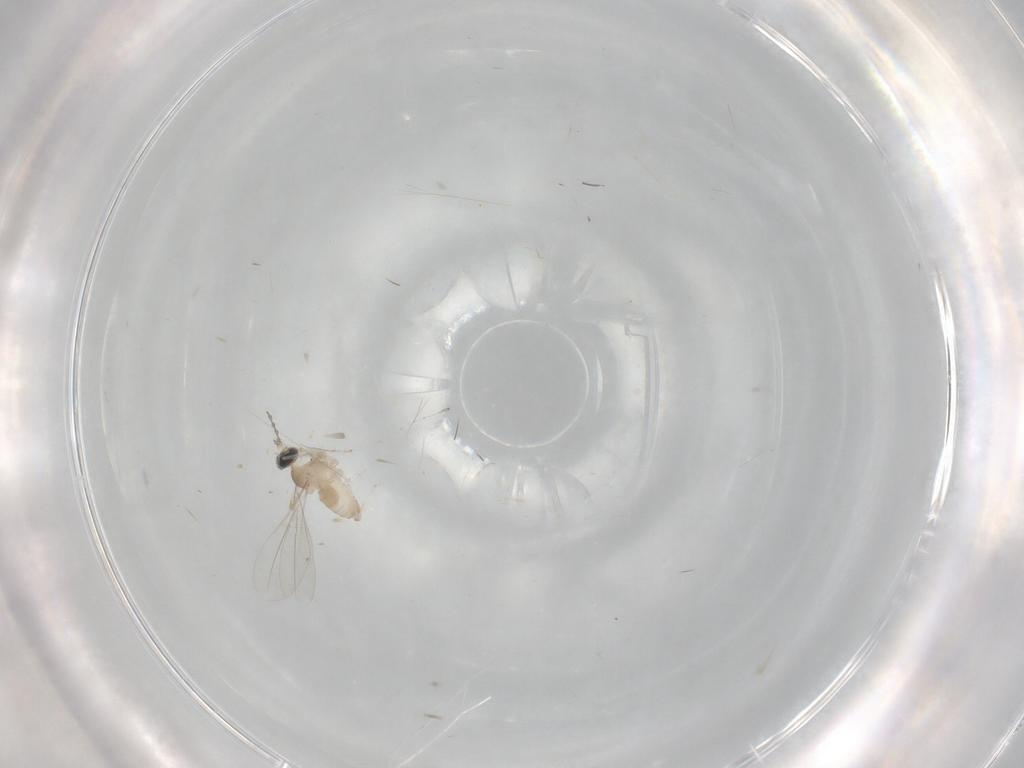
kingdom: Animalia
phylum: Arthropoda
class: Insecta
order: Diptera
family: Cecidomyiidae
